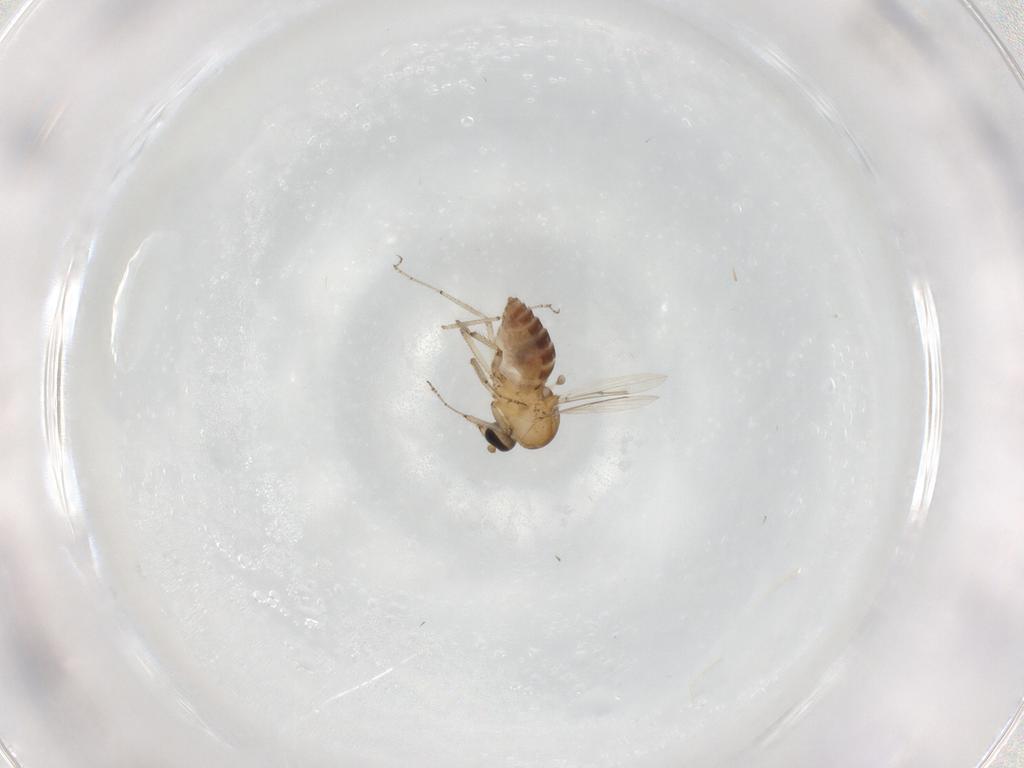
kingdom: Animalia
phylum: Arthropoda
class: Insecta
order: Diptera
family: Ceratopogonidae
